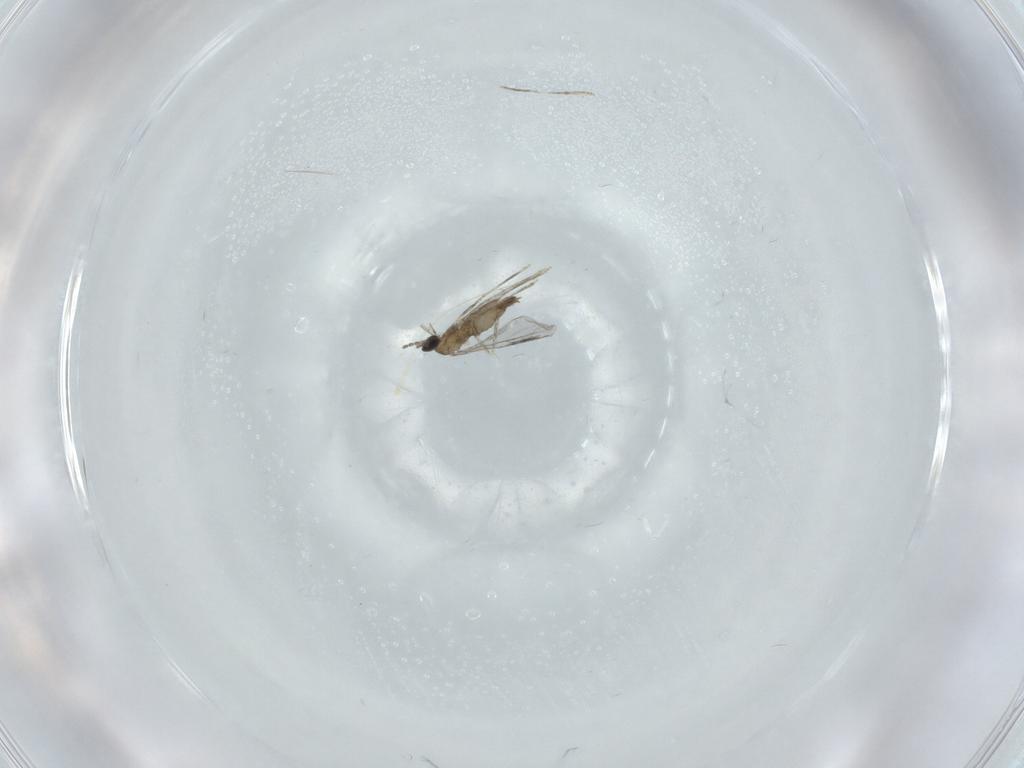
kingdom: Animalia
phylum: Arthropoda
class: Insecta
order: Diptera
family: Cecidomyiidae
